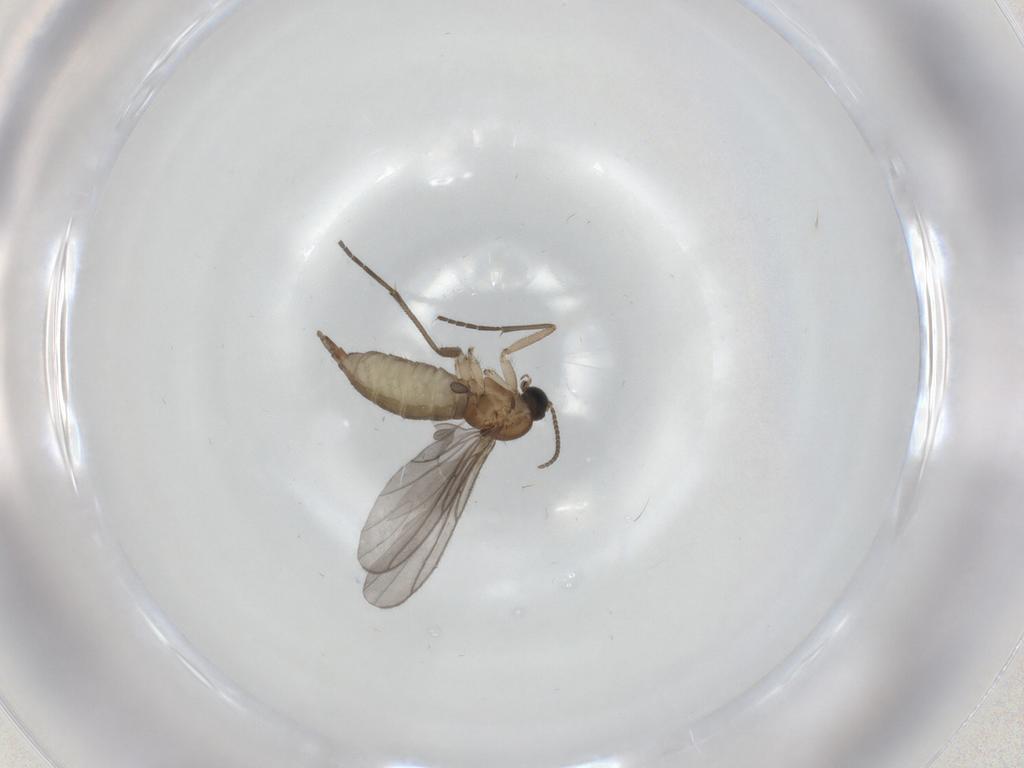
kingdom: Animalia
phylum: Arthropoda
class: Insecta
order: Diptera
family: Sciaridae
